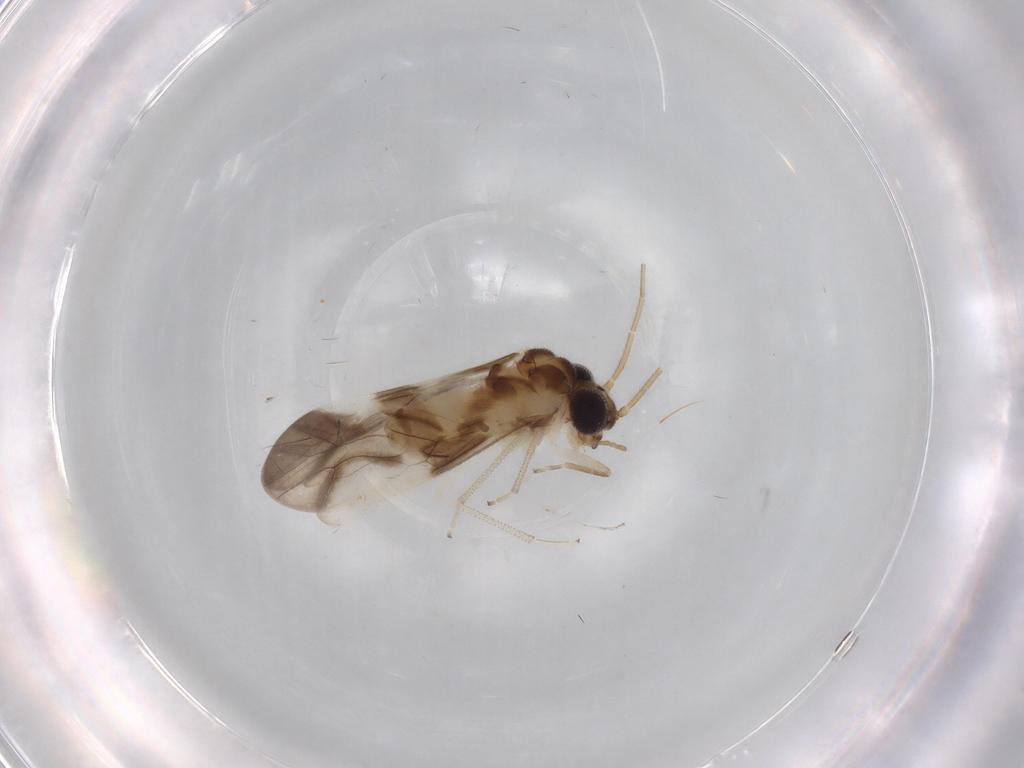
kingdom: Animalia
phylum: Arthropoda
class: Insecta
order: Psocodea
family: Caeciliusidae
